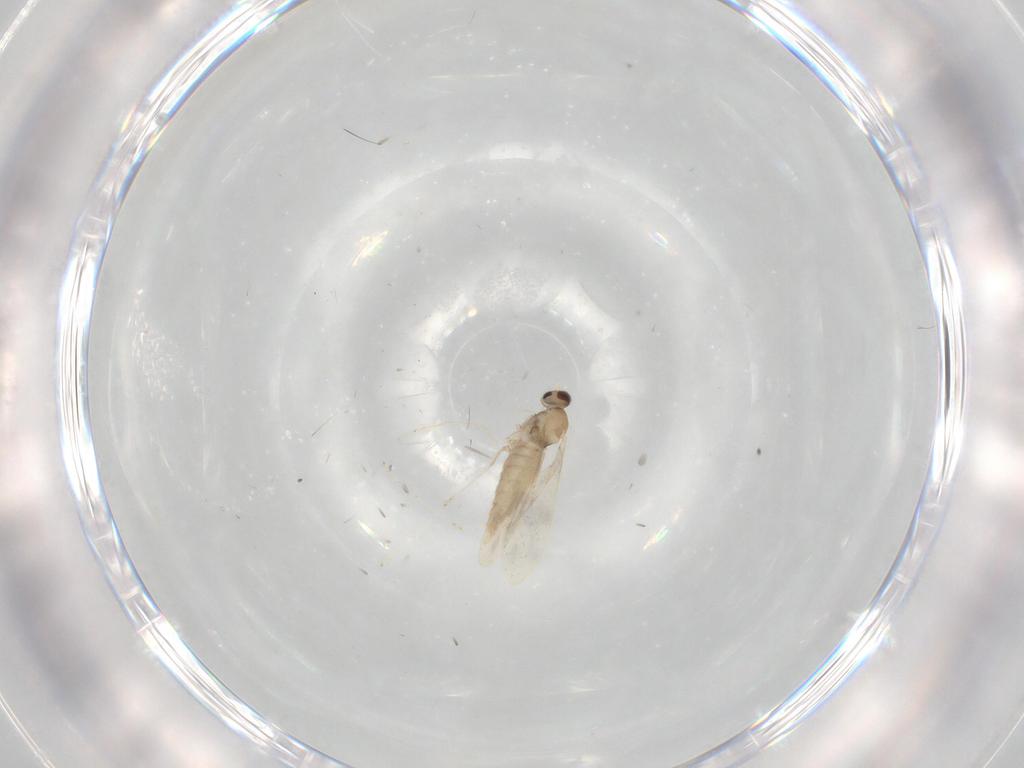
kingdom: Animalia
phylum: Arthropoda
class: Insecta
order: Diptera
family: Cecidomyiidae
